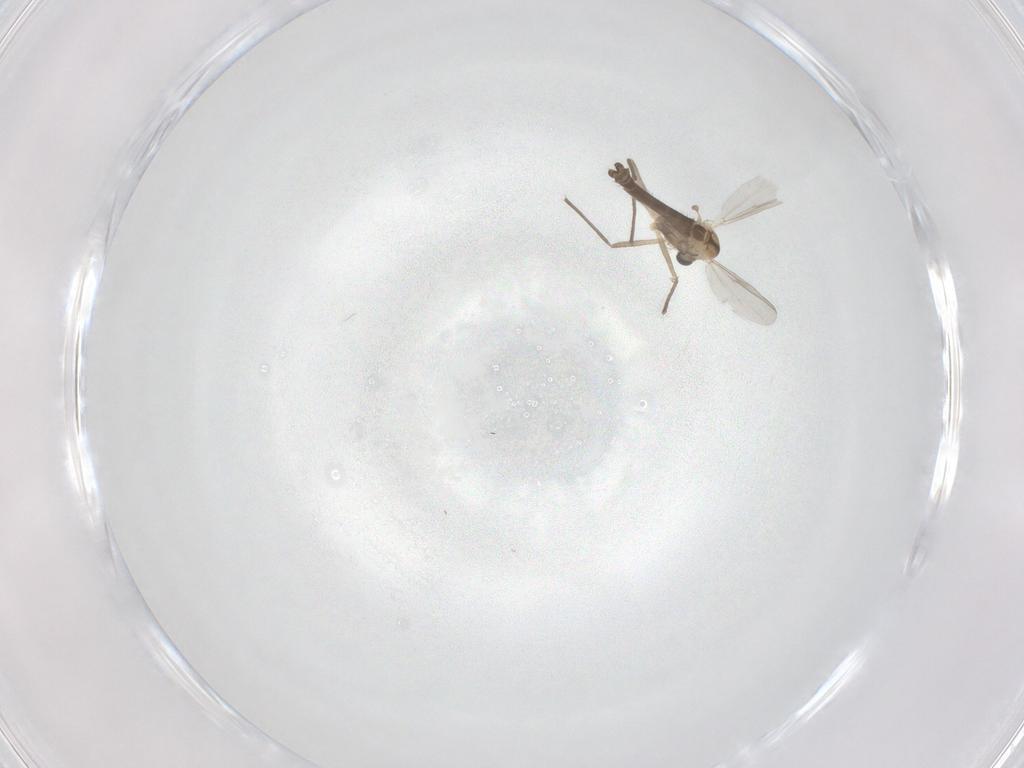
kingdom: Animalia
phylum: Arthropoda
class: Insecta
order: Diptera
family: Chironomidae
